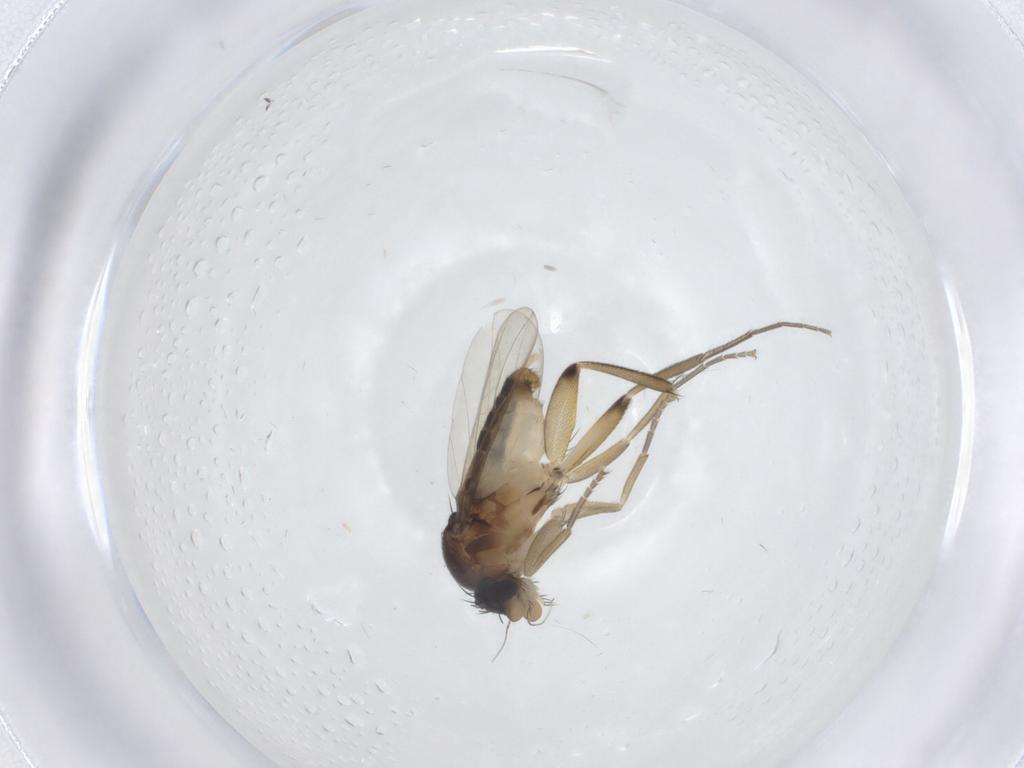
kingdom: Animalia
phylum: Arthropoda
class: Insecta
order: Diptera
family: Phoridae
